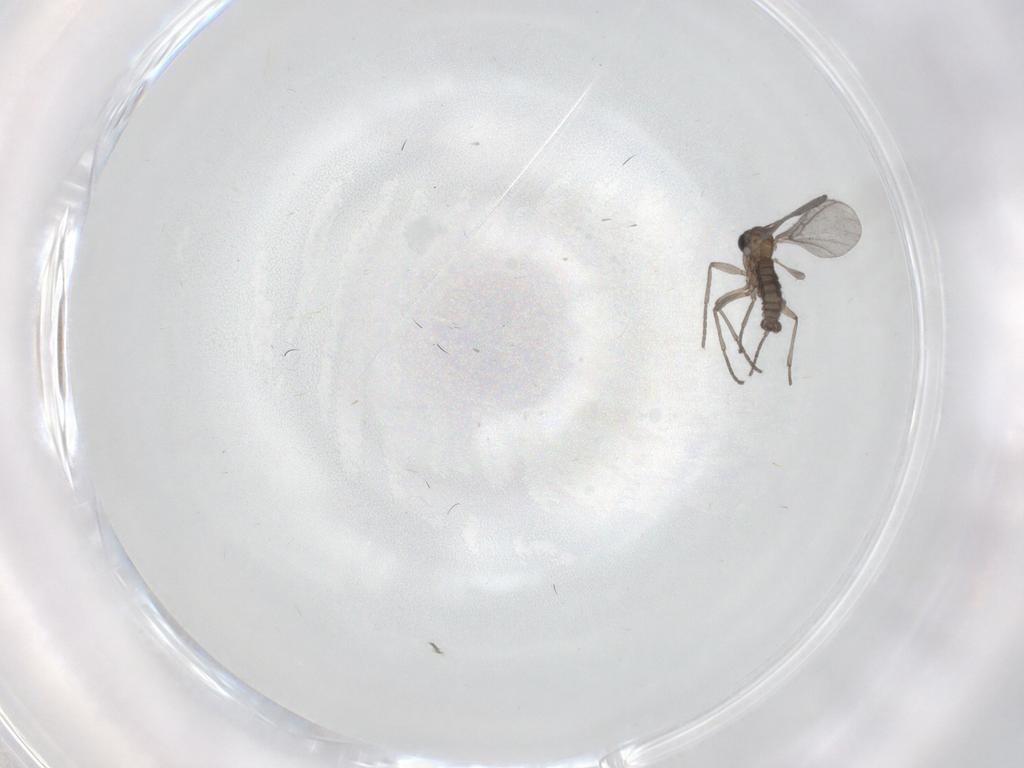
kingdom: Animalia
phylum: Arthropoda
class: Insecta
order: Diptera
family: Sciaridae
